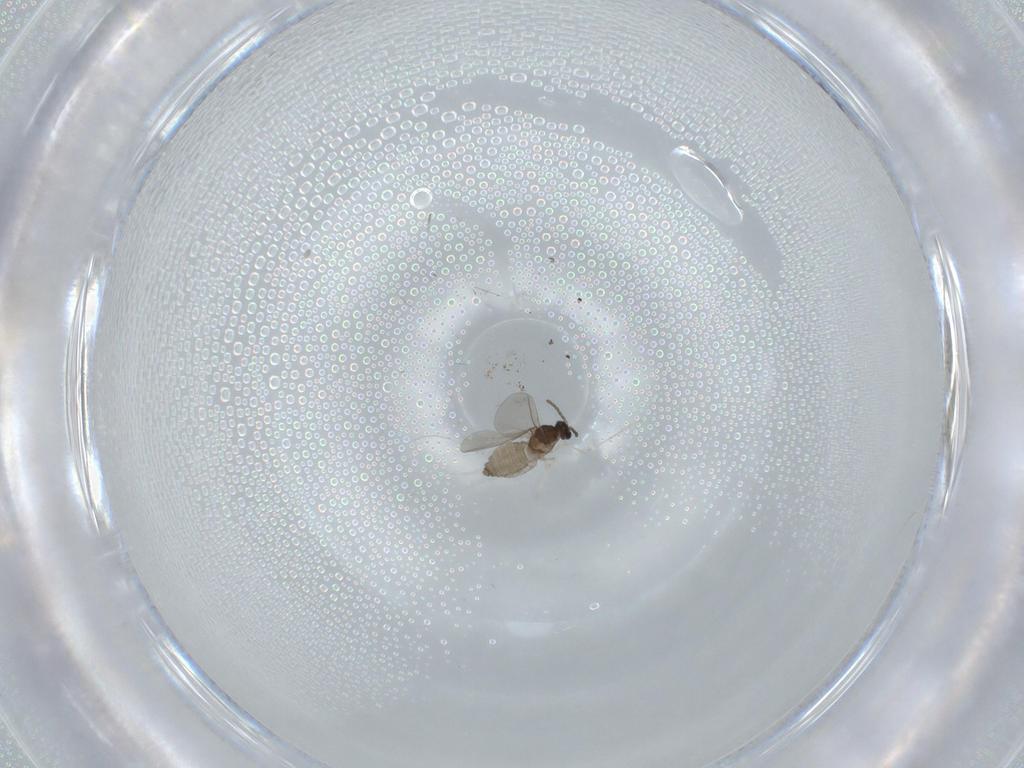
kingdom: Animalia
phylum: Arthropoda
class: Insecta
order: Diptera
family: Cecidomyiidae
